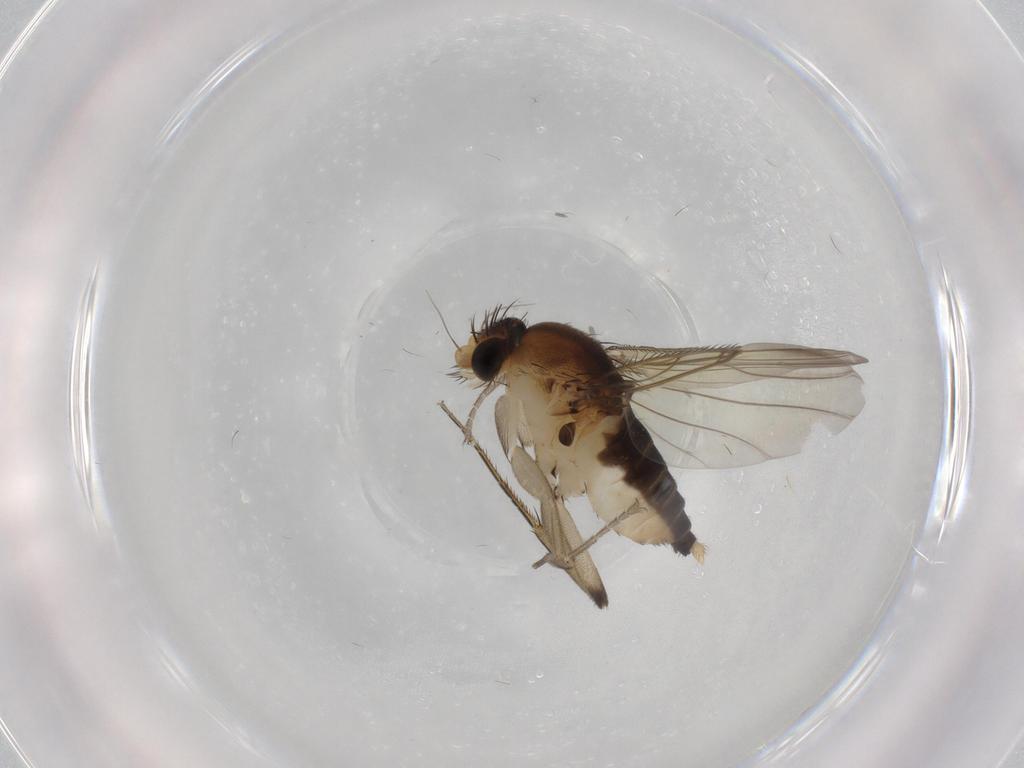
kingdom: Animalia
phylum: Arthropoda
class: Insecta
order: Diptera
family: Phoridae
